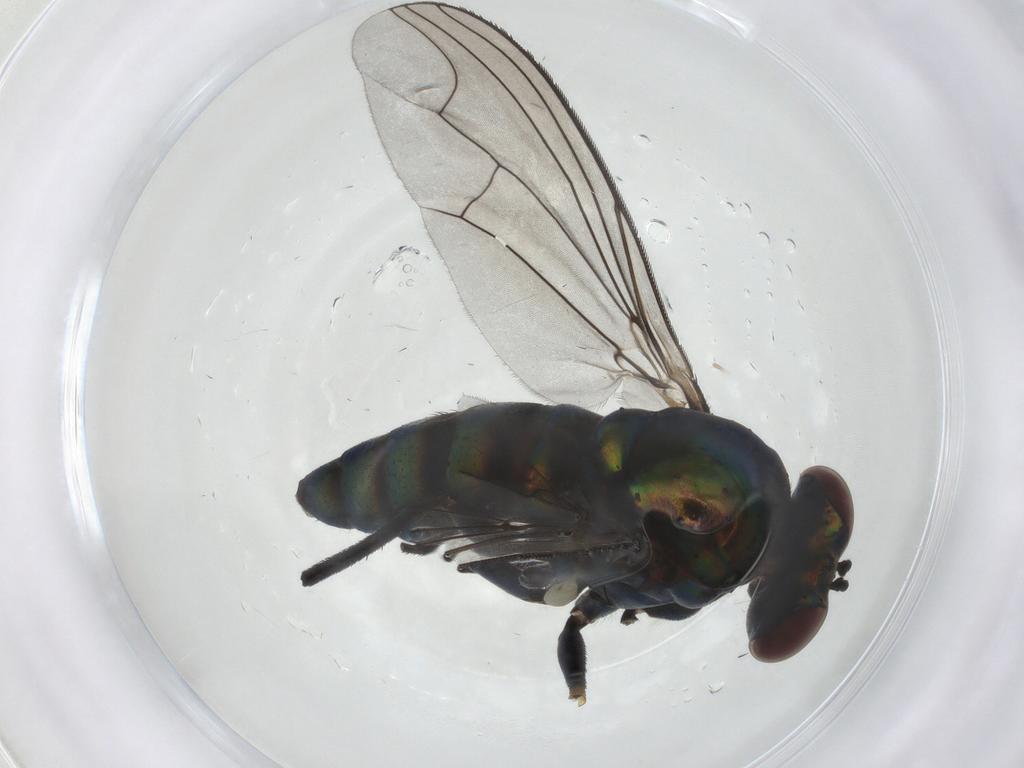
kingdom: Animalia
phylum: Arthropoda
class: Insecta
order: Diptera
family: Dolichopodidae
